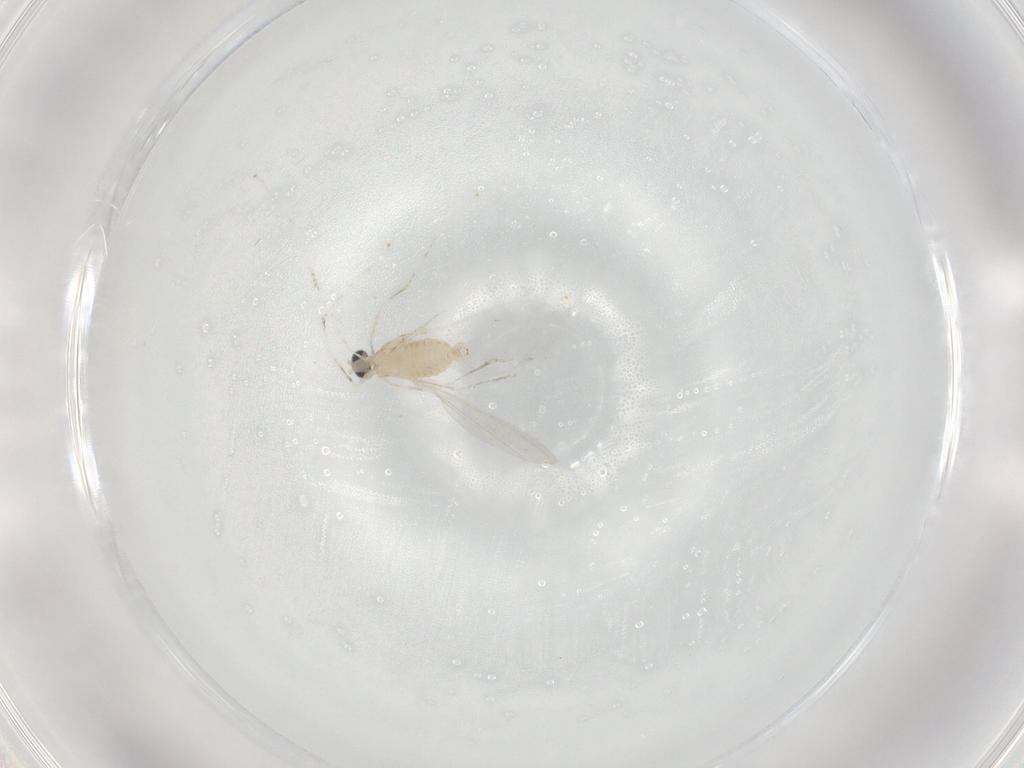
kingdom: Animalia
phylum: Arthropoda
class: Insecta
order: Diptera
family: Cecidomyiidae
